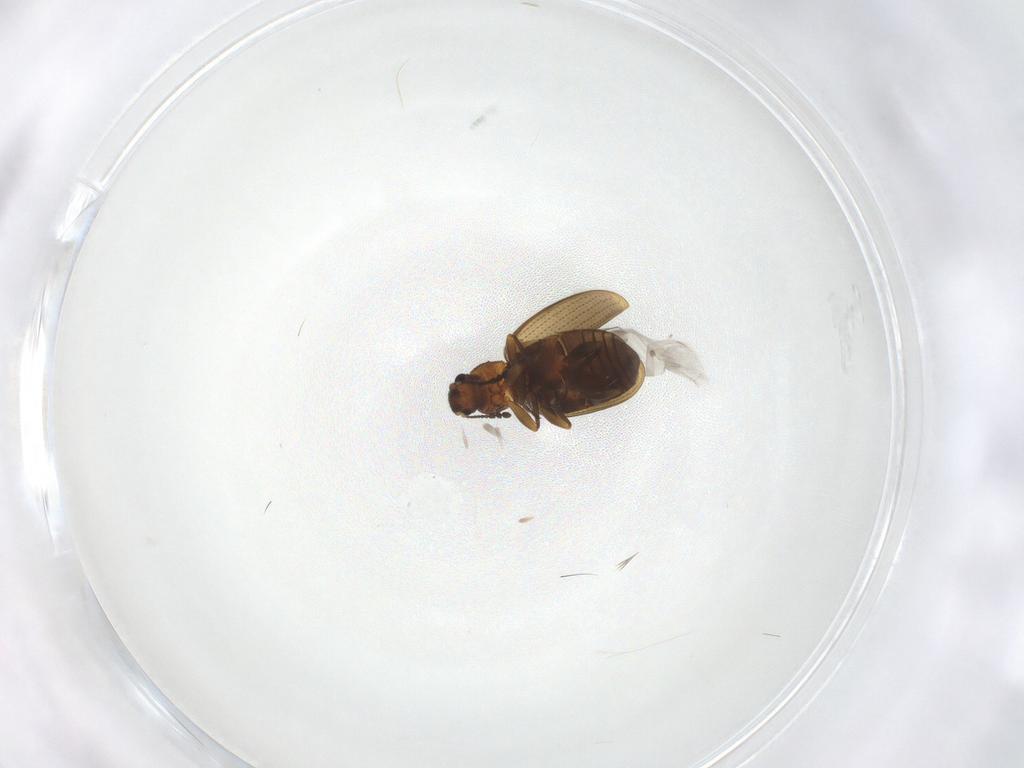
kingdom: Animalia
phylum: Arthropoda
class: Insecta
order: Coleoptera
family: Latridiidae
